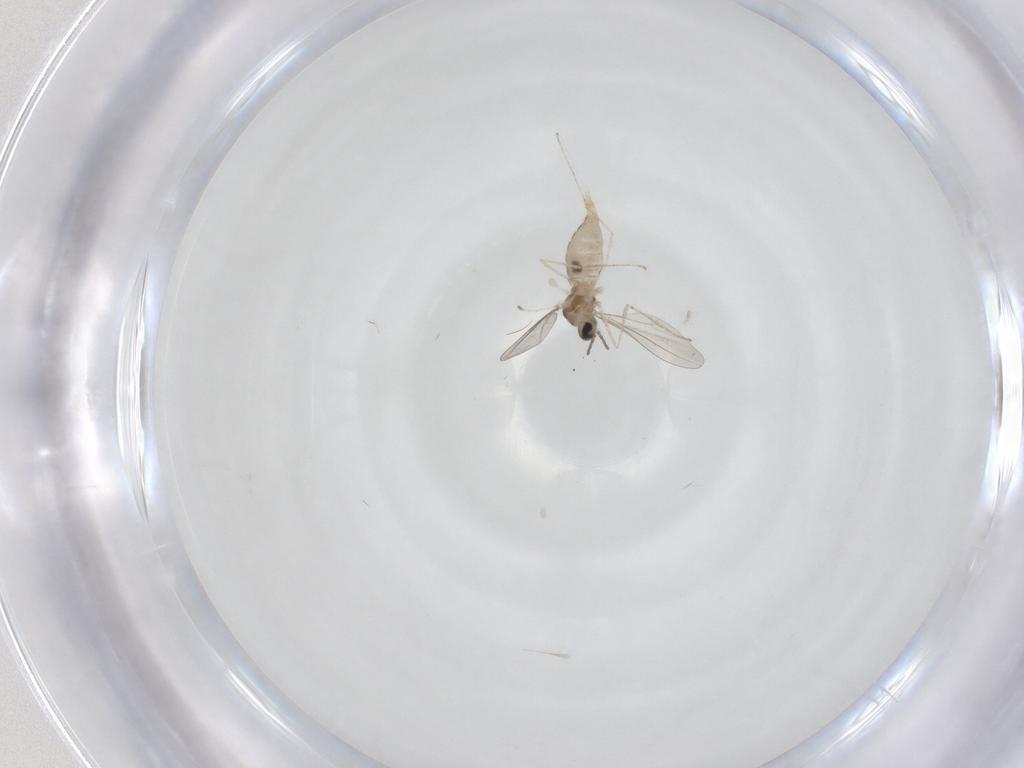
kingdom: Animalia
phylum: Arthropoda
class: Insecta
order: Diptera
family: Cecidomyiidae
